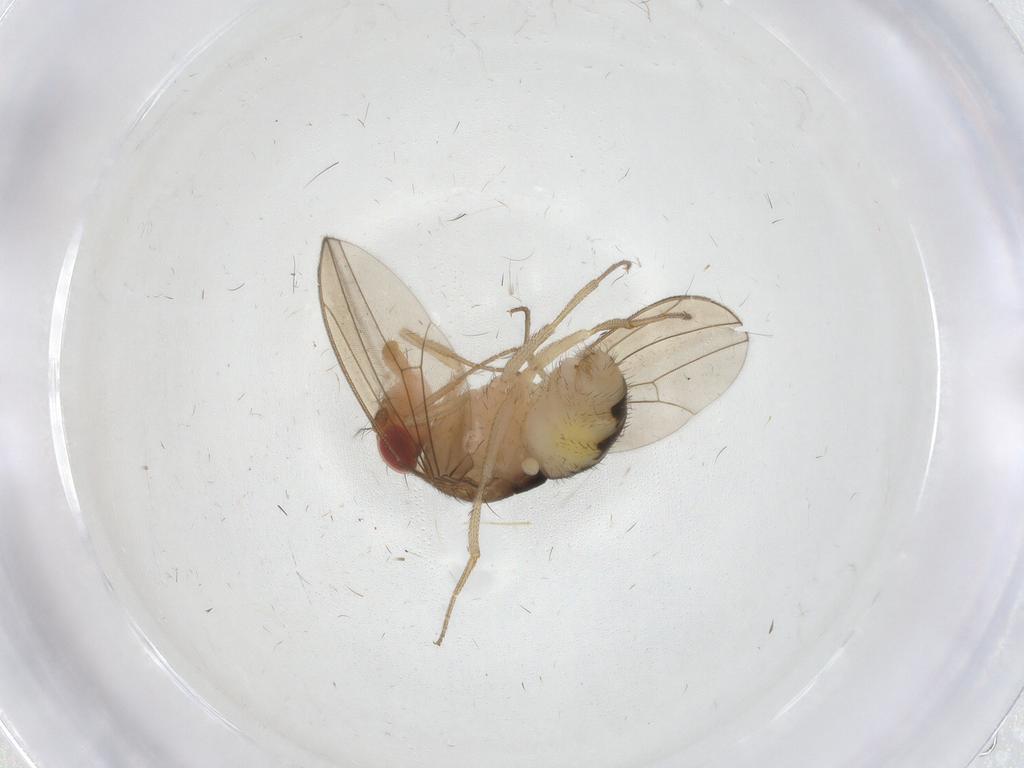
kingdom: Animalia
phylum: Arthropoda
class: Insecta
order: Diptera
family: Drosophilidae
